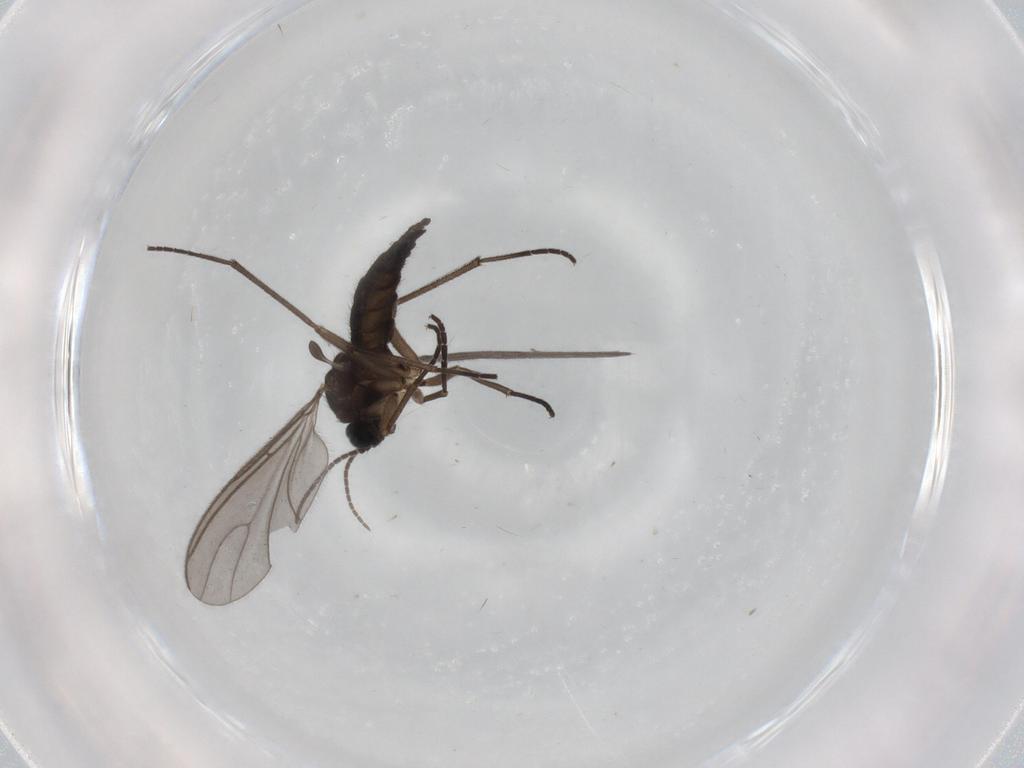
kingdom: Animalia
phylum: Arthropoda
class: Insecta
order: Diptera
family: Sciaridae
